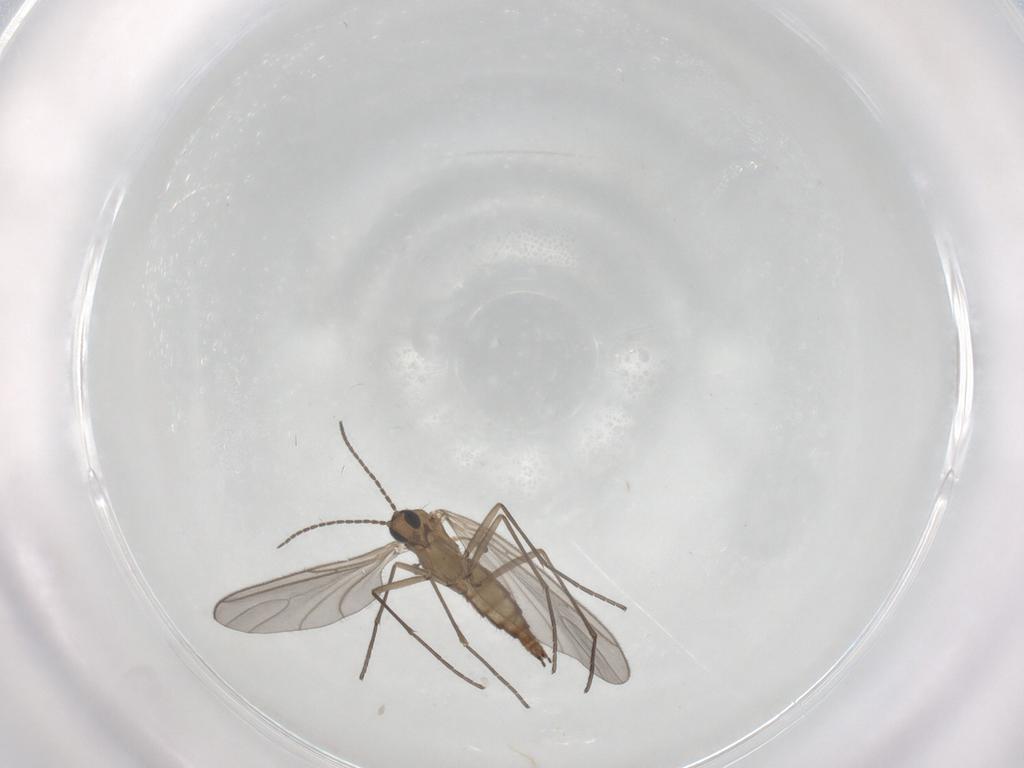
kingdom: Animalia
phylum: Arthropoda
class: Insecta
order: Diptera
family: Sciaridae
